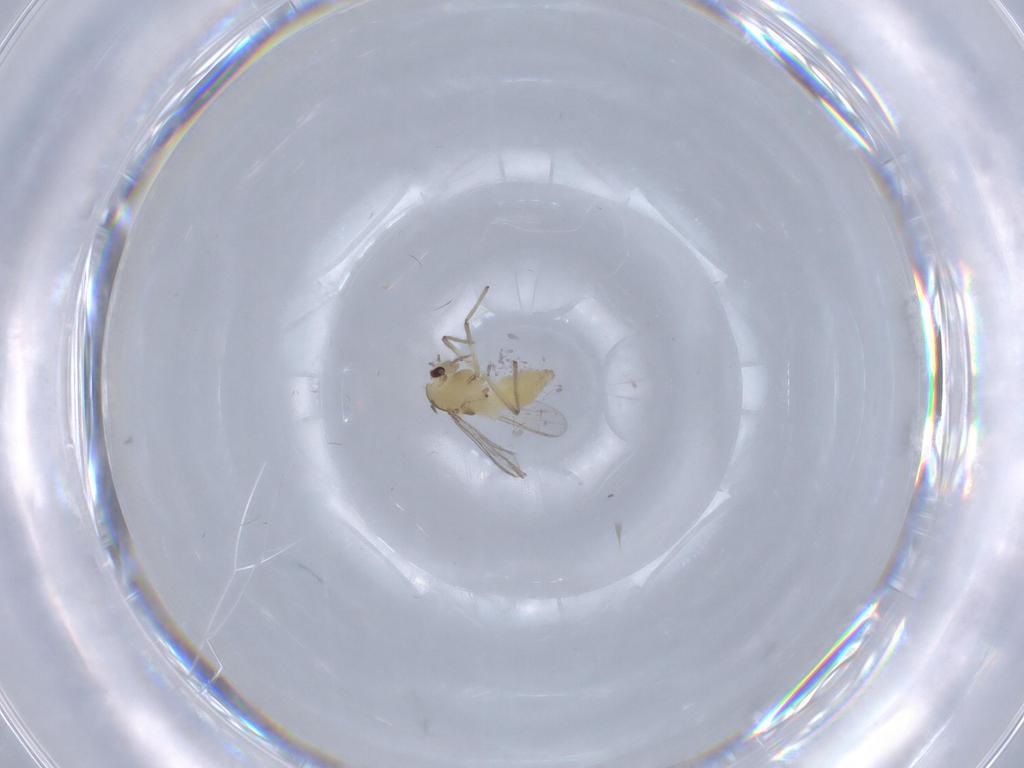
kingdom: Animalia
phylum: Arthropoda
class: Insecta
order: Diptera
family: Chironomidae
